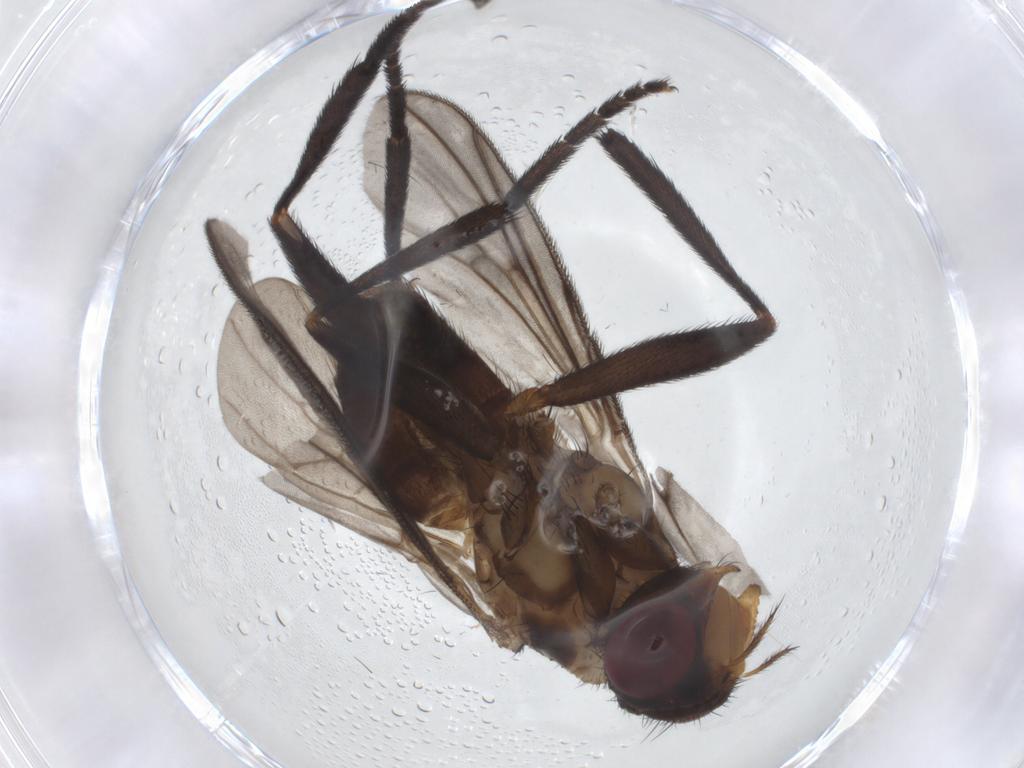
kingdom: Animalia
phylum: Arthropoda
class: Insecta
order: Diptera
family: Calliphoridae
